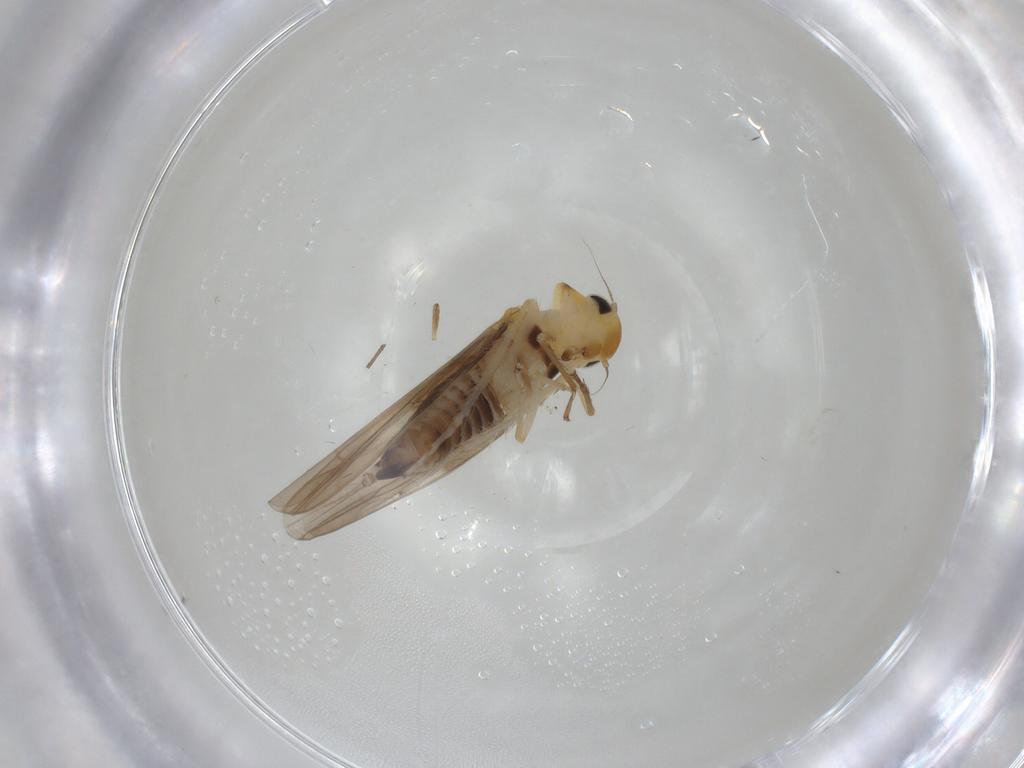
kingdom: Animalia
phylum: Arthropoda
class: Insecta
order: Hemiptera
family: Cicadellidae
